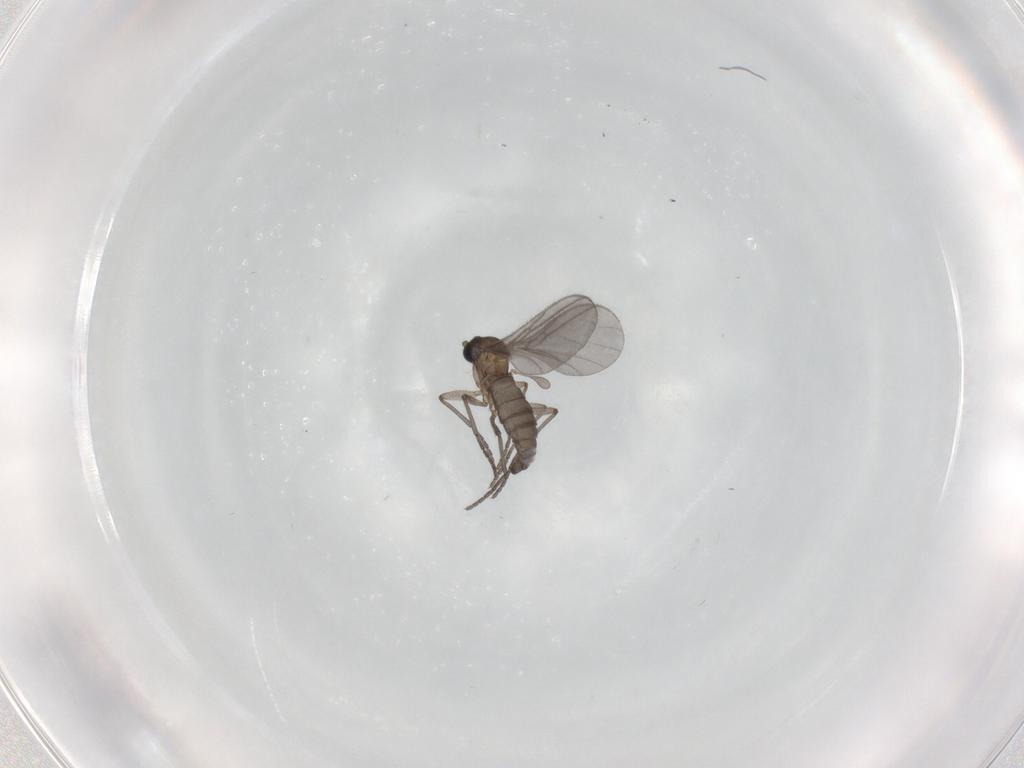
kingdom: Animalia
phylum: Arthropoda
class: Insecta
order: Diptera
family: Sciaridae
